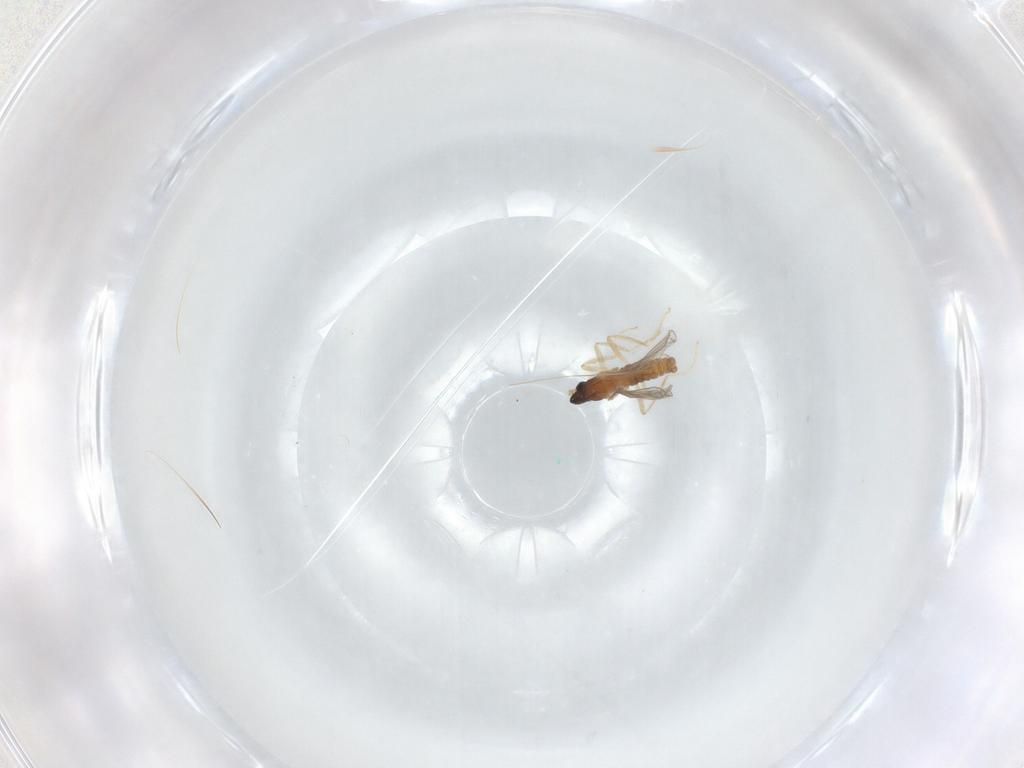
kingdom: Animalia
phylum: Arthropoda
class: Insecta
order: Diptera
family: Cecidomyiidae
